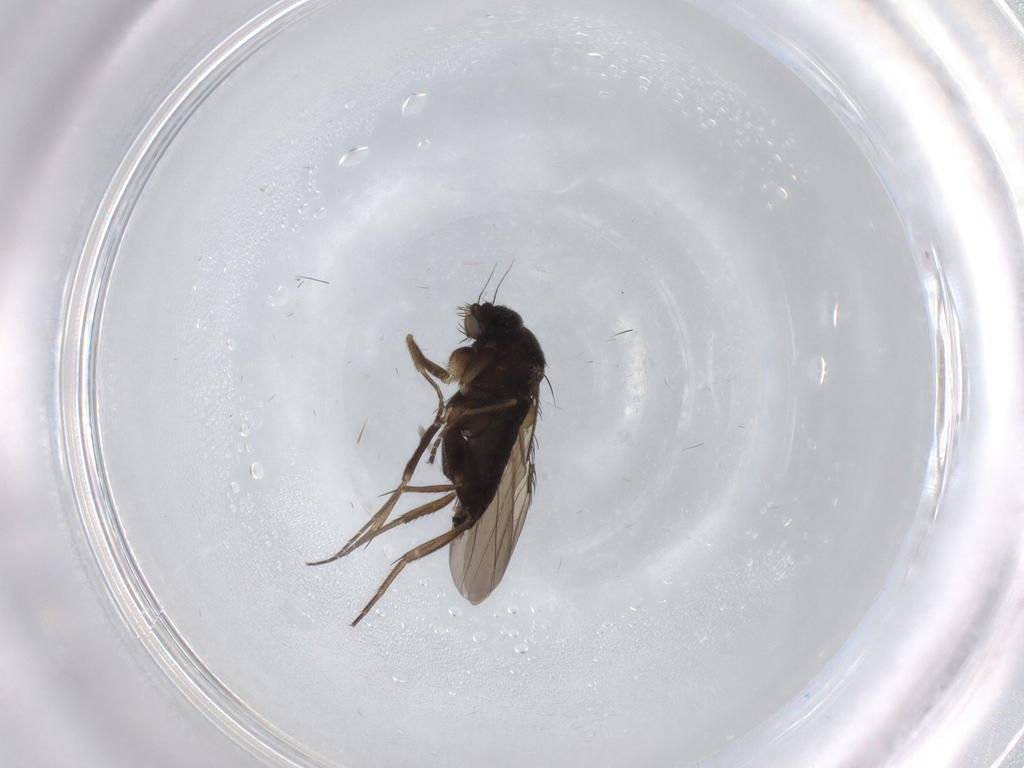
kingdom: Animalia
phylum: Arthropoda
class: Insecta
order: Diptera
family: Phoridae
